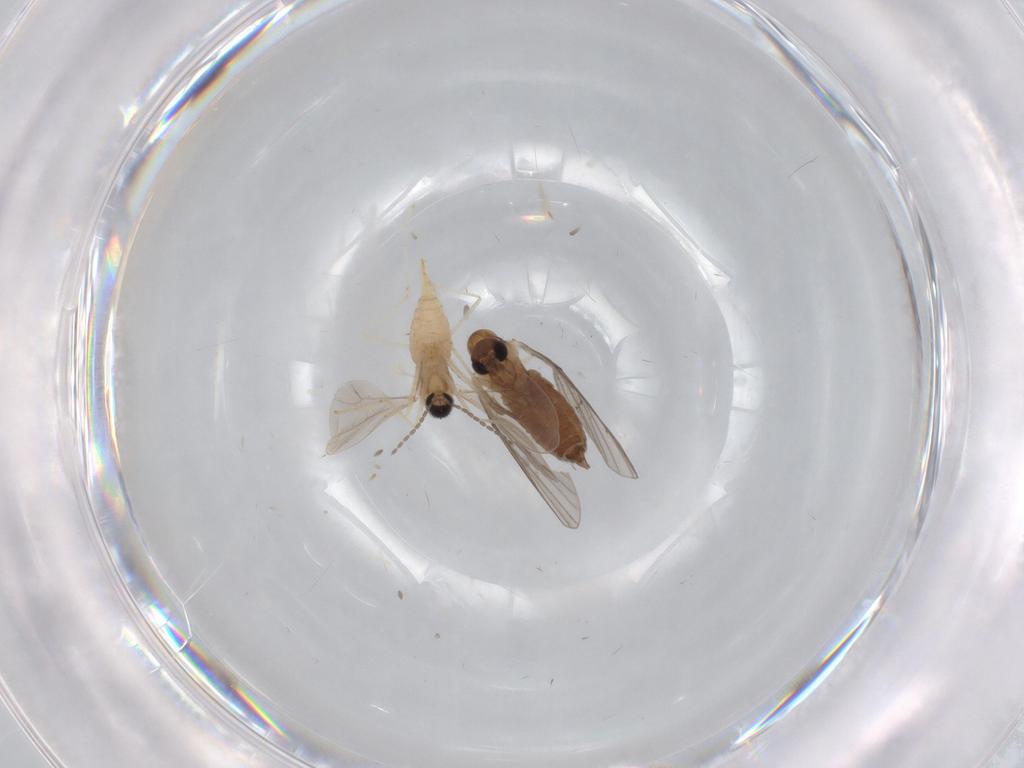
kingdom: Animalia
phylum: Arthropoda
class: Insecta
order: Diptera
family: Cecidomyiidae
